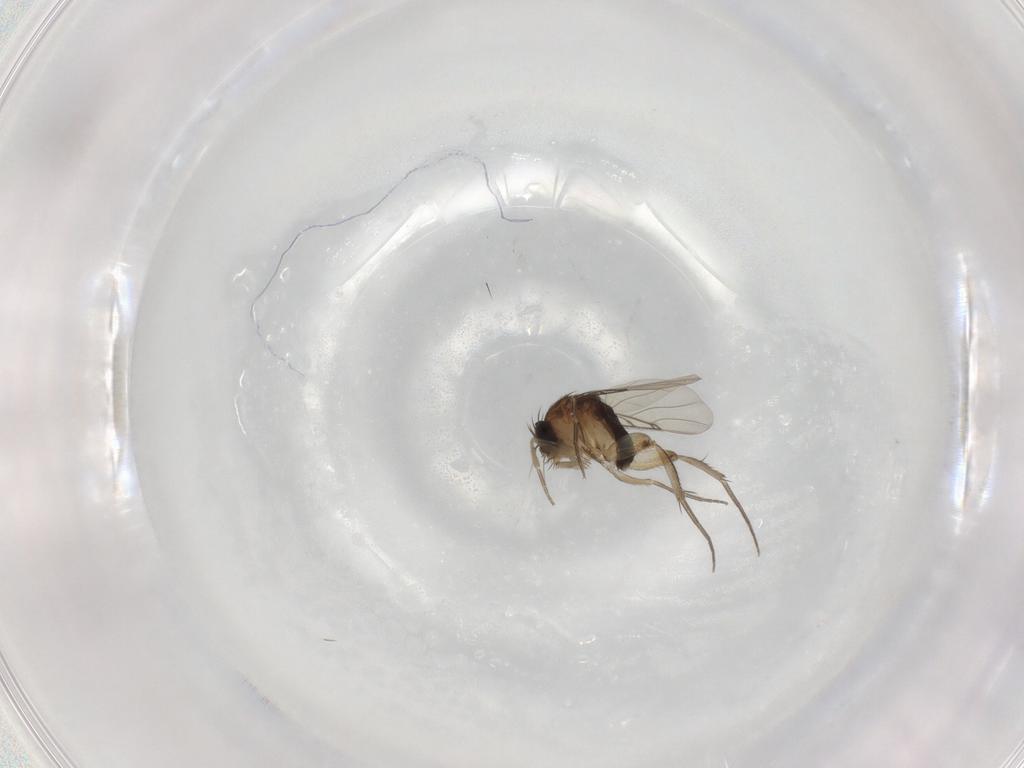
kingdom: Animalia
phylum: Arthropoda
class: Insecta
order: Diptera
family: Phoridae
